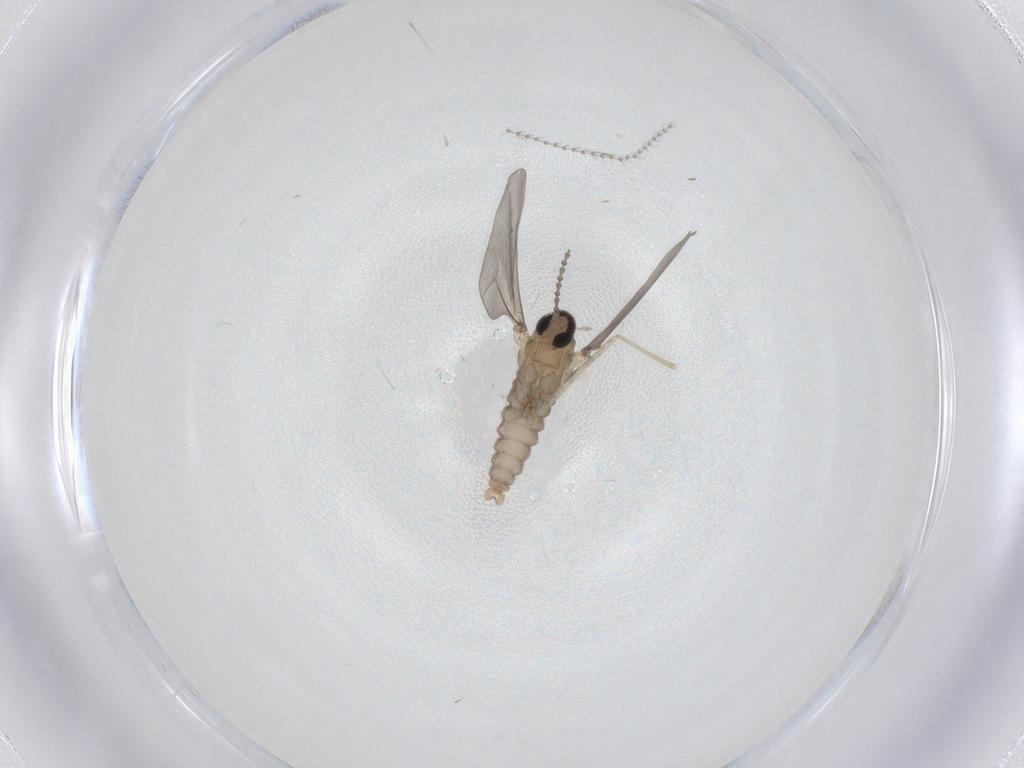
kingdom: Animalia
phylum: Arthropoda
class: Insecta
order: Diptera
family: Cecidomyiidae
